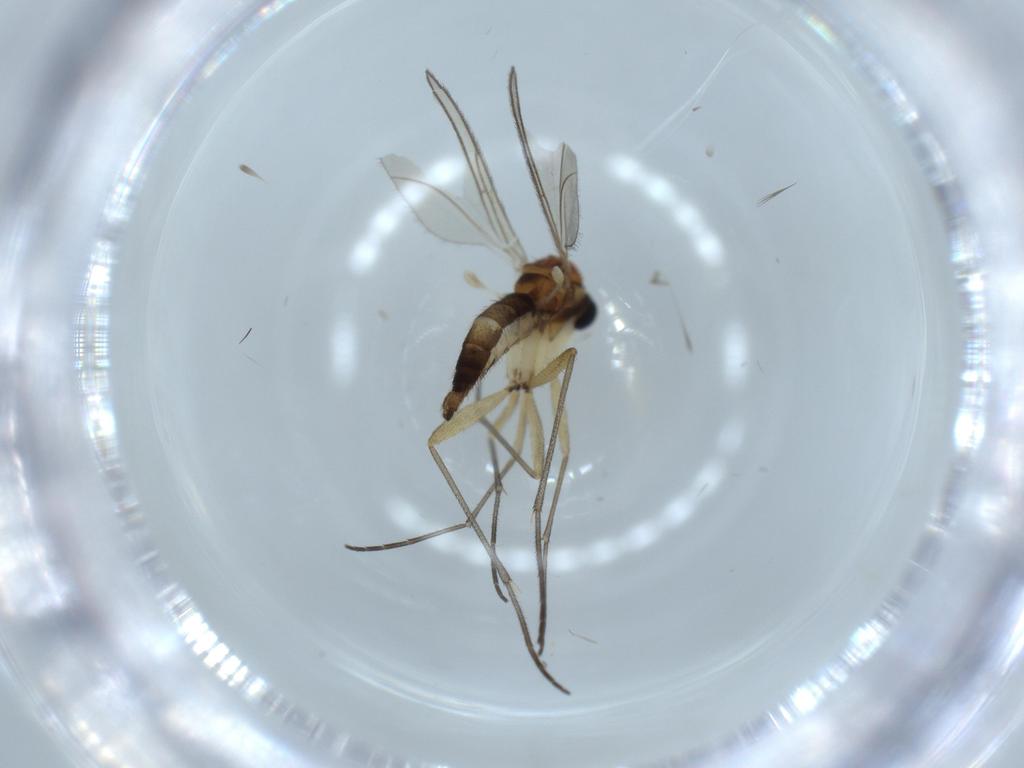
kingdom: Animalia
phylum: Arthropoda
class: Insecta
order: Diptera
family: Sciaridae
